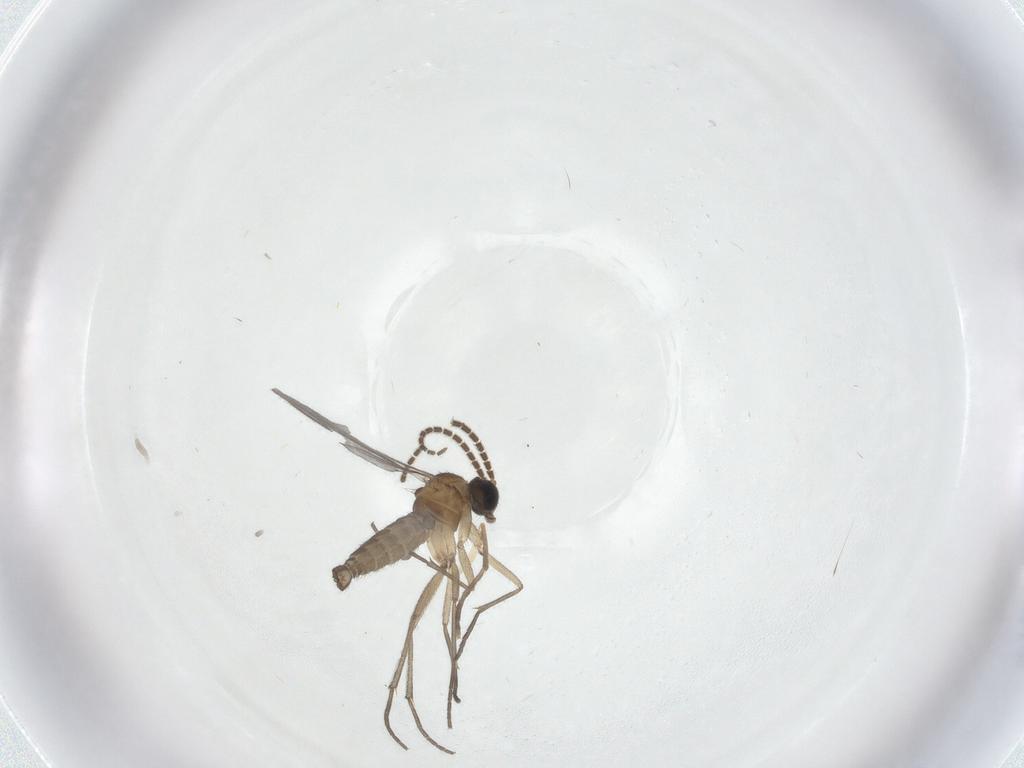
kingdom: Animalia
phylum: Arthropoda
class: Insecta
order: Diptera
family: Sciaridae
